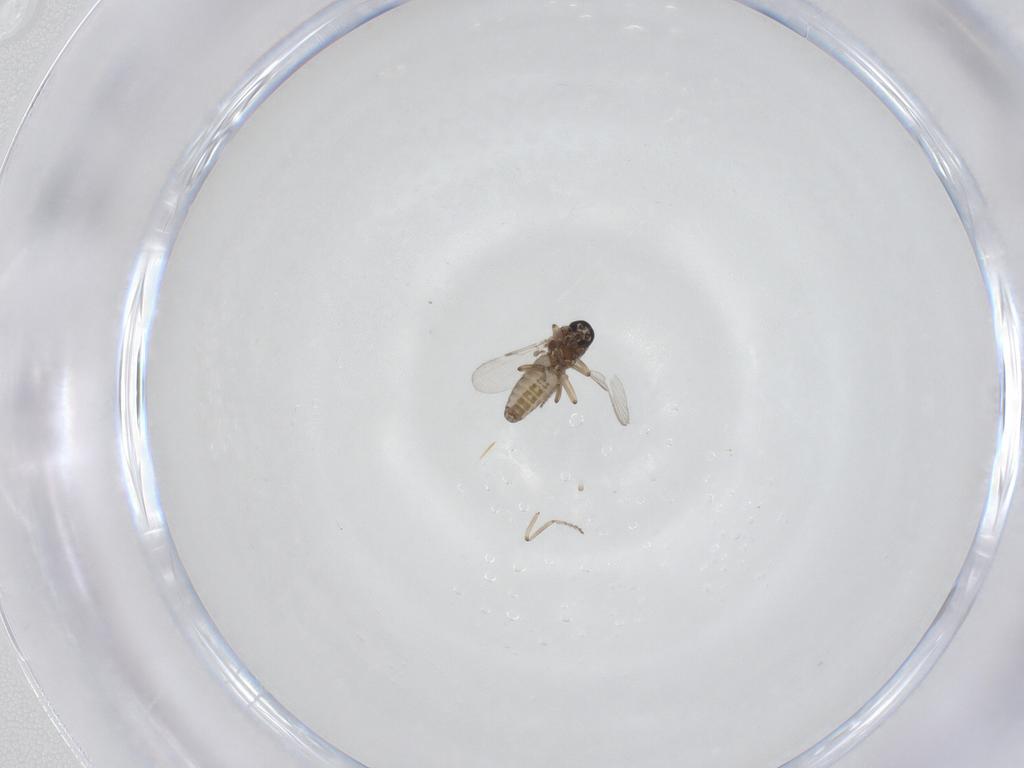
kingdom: Animalia
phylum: Arthropoda
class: Insecta
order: Diptera
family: Ceratopogonidae
